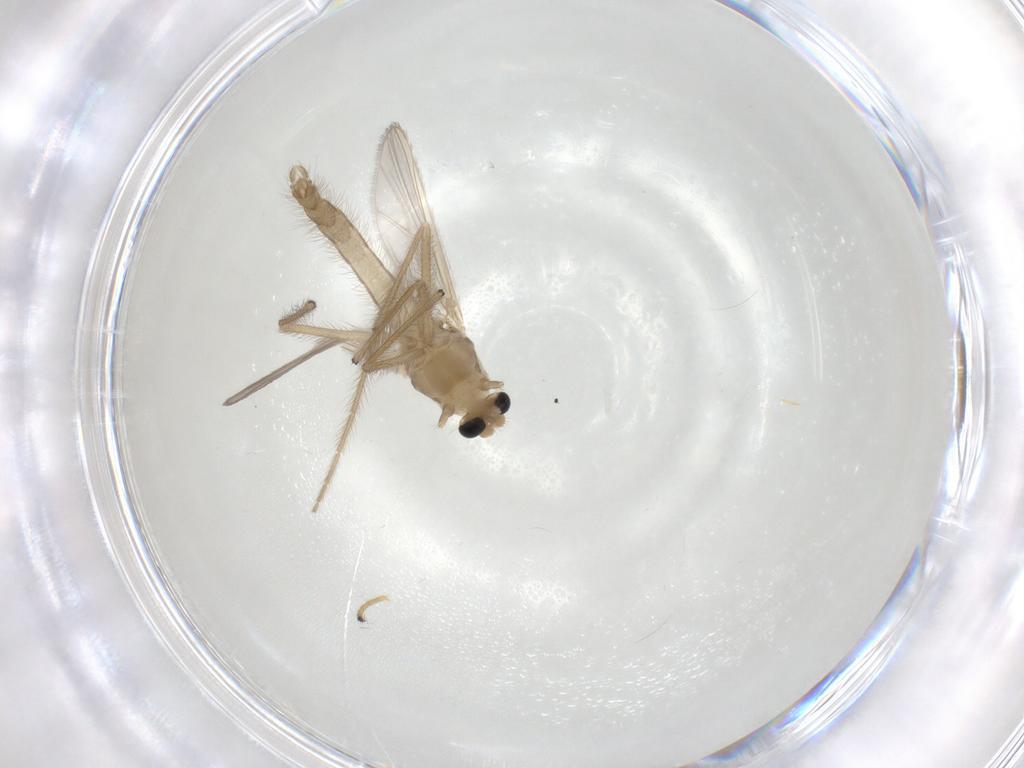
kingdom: Animalia
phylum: Arthropoda
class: Insecta
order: Diptera
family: Chironomidae
